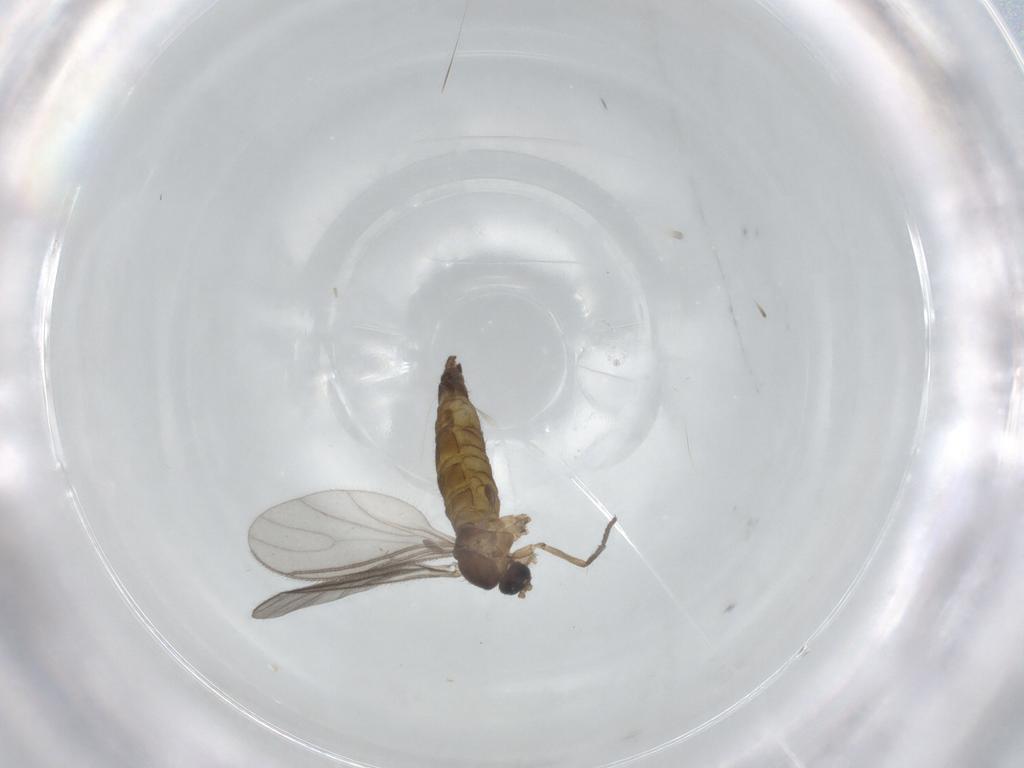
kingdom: Animalia
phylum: Arthropoda
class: Insecta
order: Diptera
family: Sciaridae
